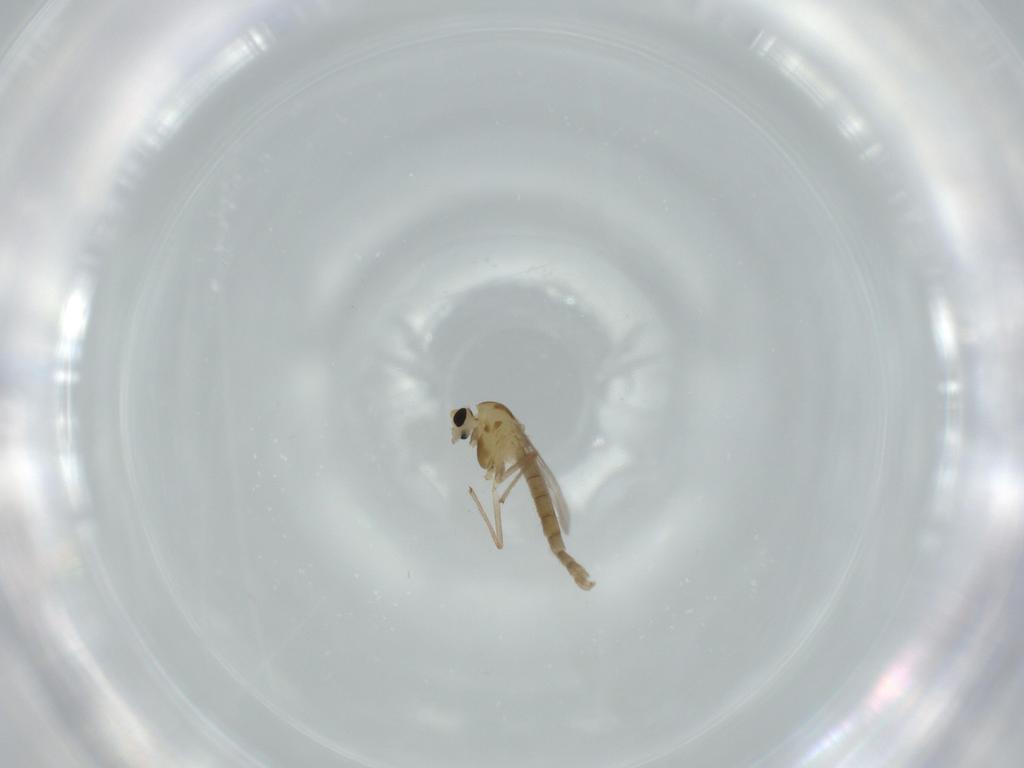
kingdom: Animalia
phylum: Arthropoda
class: Insecta
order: Diptera
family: Chironomidae
